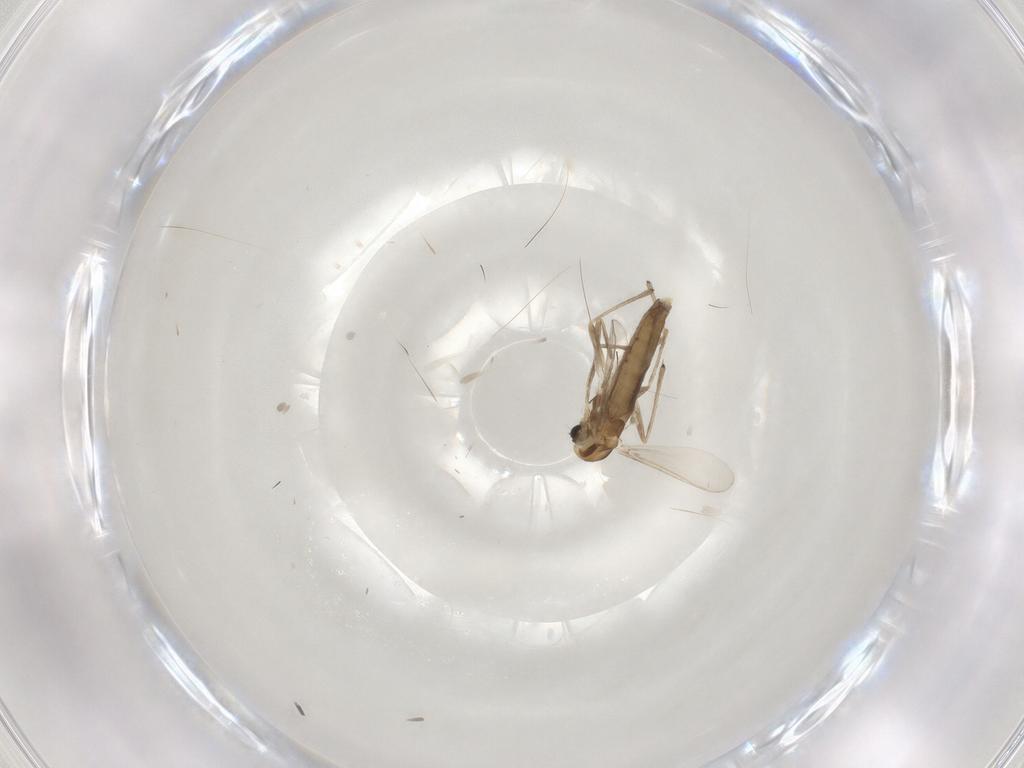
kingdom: Animalia
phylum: Arthropoda
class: Insecta
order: Diptera
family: Chironomidae
